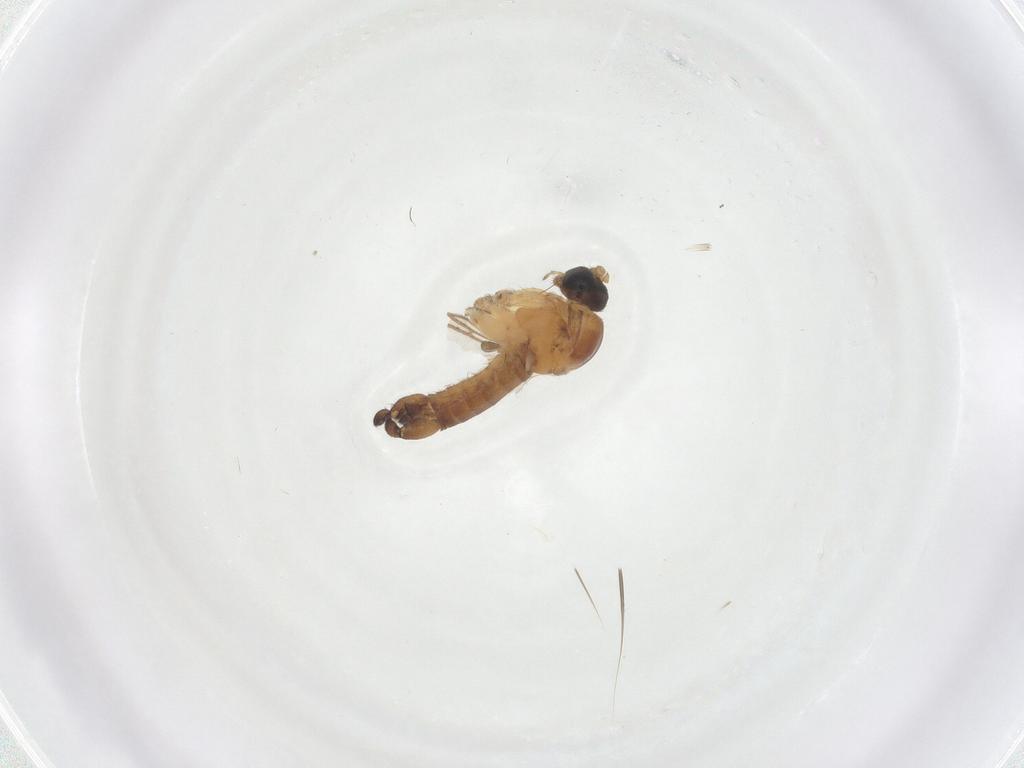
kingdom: Animalia
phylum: Arthropoda
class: Insecta
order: Diptera
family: Sciaridae
